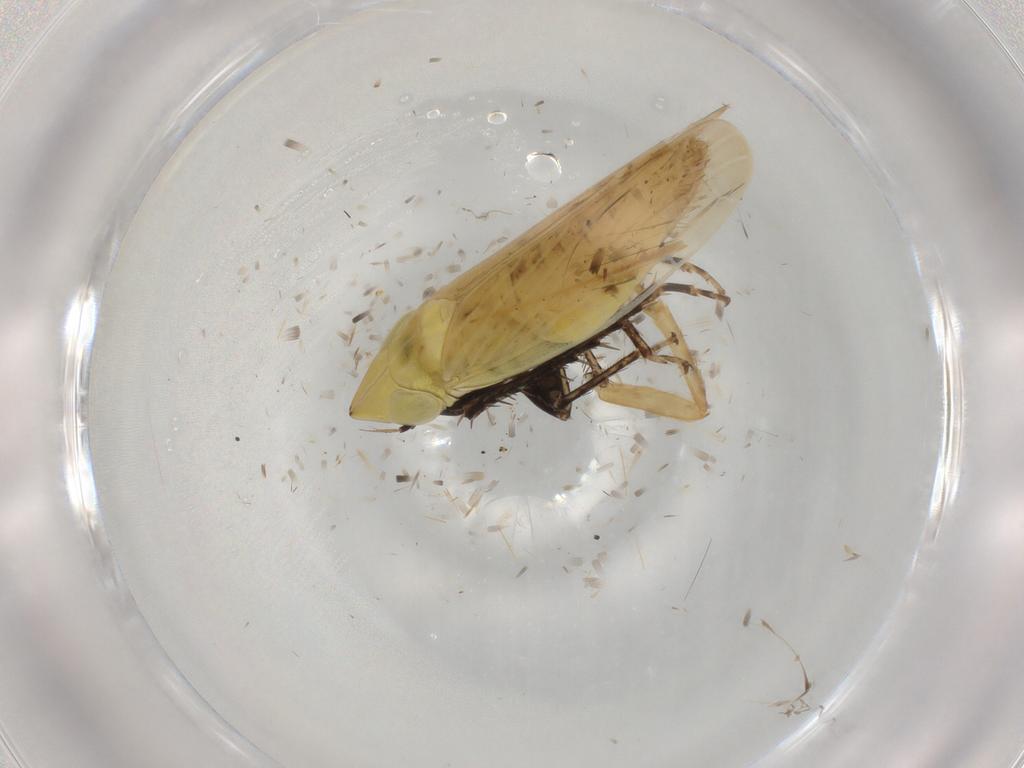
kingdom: Animalia
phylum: Arthropoda
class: Insecta
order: Hemiptera
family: Cicadellidae
